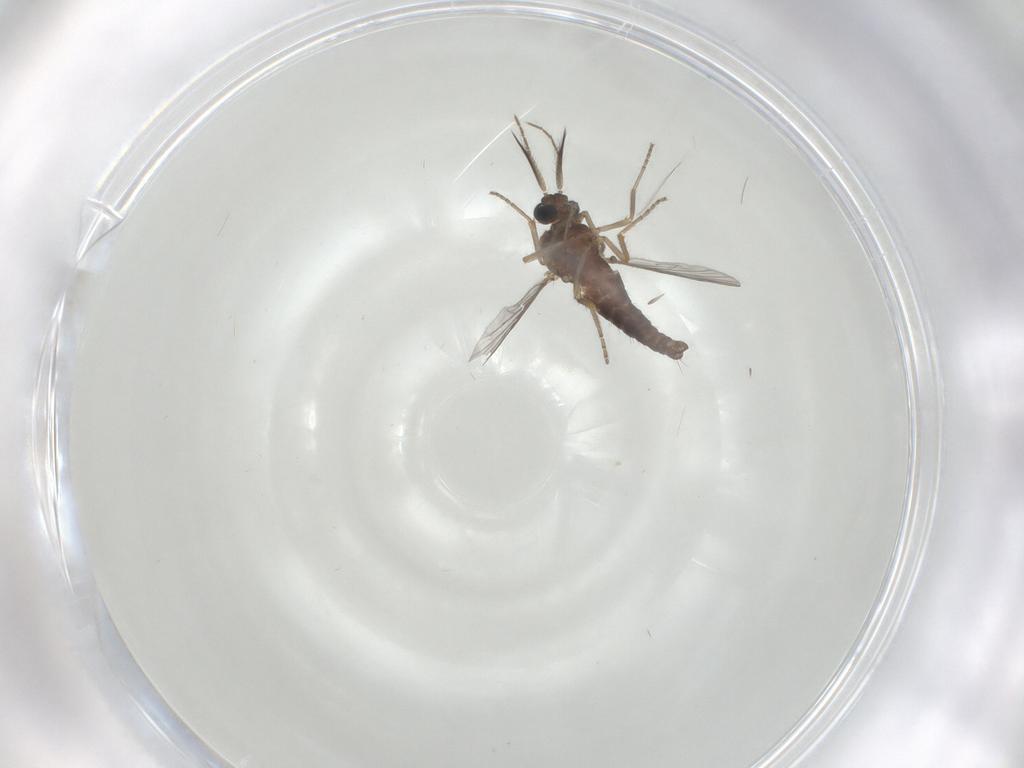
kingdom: Animalia
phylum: Arthropoda
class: Insecta
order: Diptera
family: Ceratopogonidae
